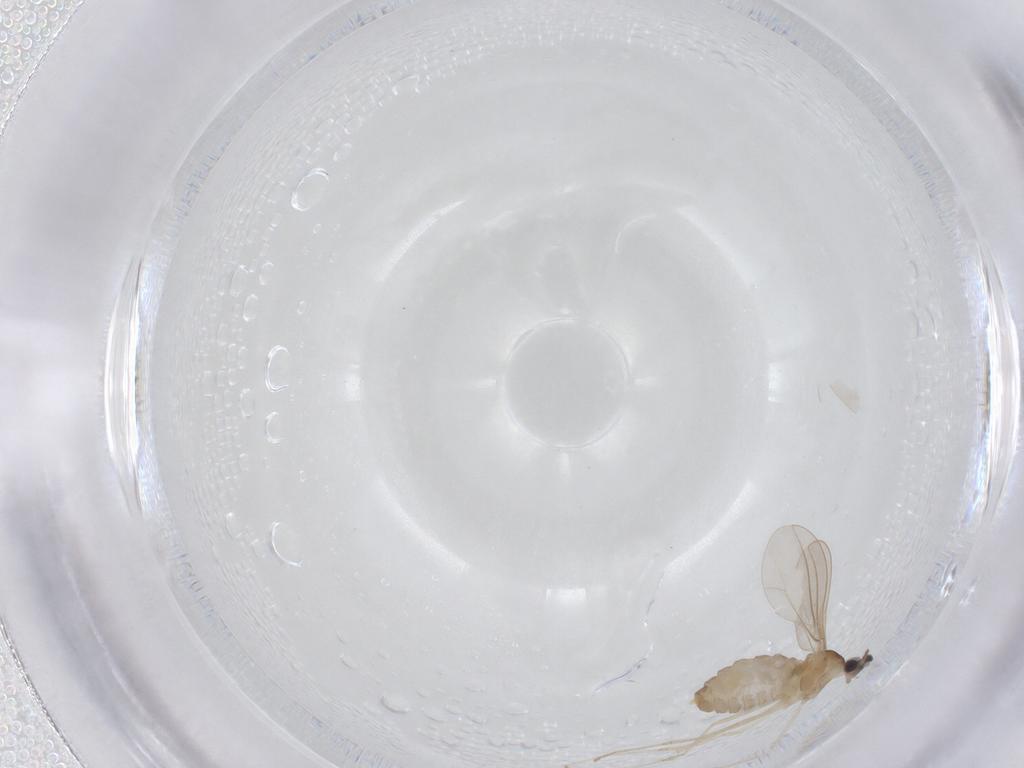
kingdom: Animalia
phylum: Arthropoda
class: Insecta
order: Diptera
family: Cecidomyiidae
